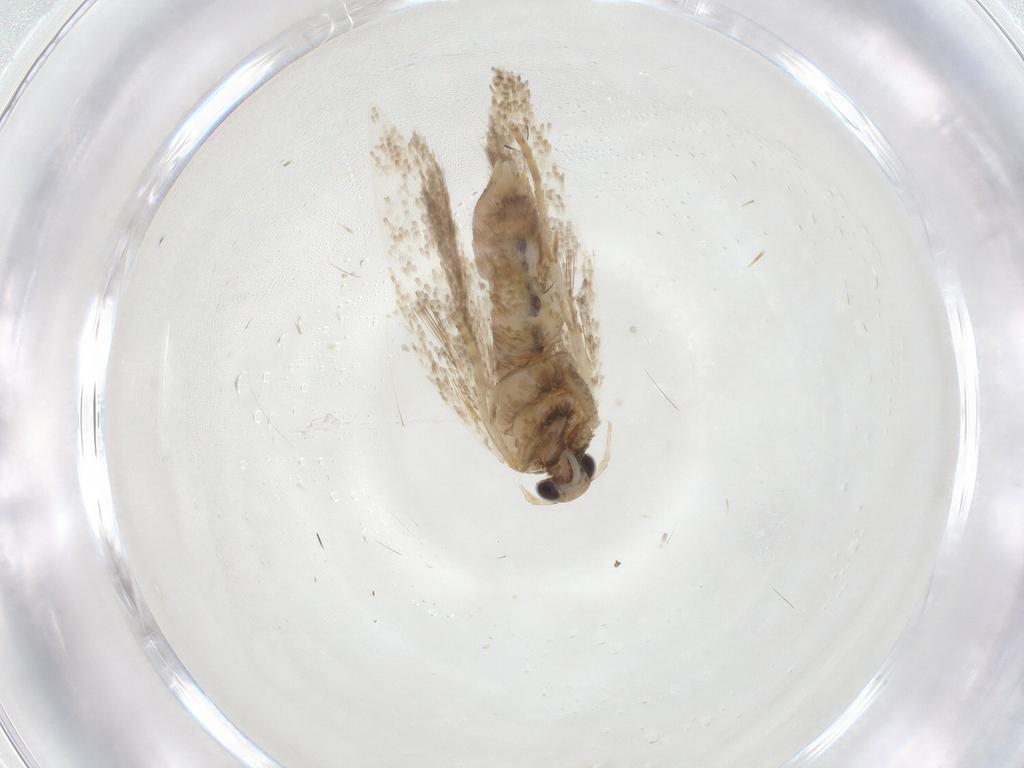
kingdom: Animalia
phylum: Arthropoda
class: Insecta
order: Lepidoptera
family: Elachistidae
